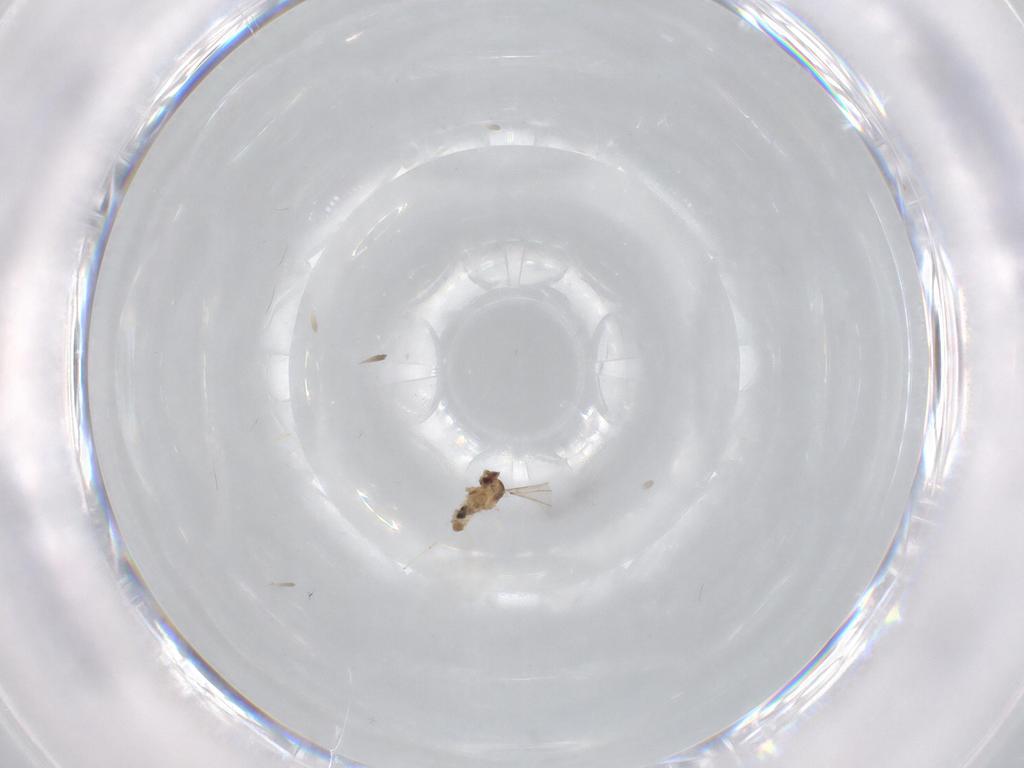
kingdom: Animalia
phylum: Arthropoda
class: Insecta
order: Diptera
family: Cecidomyiidae
